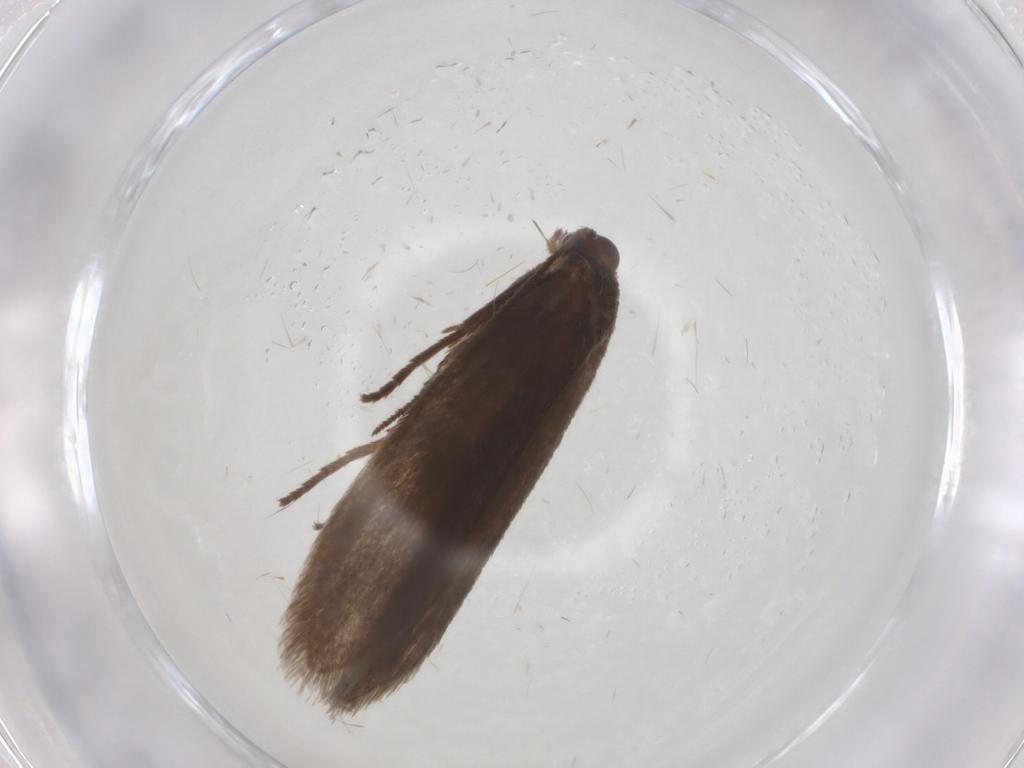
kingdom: Animalia
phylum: Arthropoda
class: Insecta
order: Lepidoptera
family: Limacodidae
